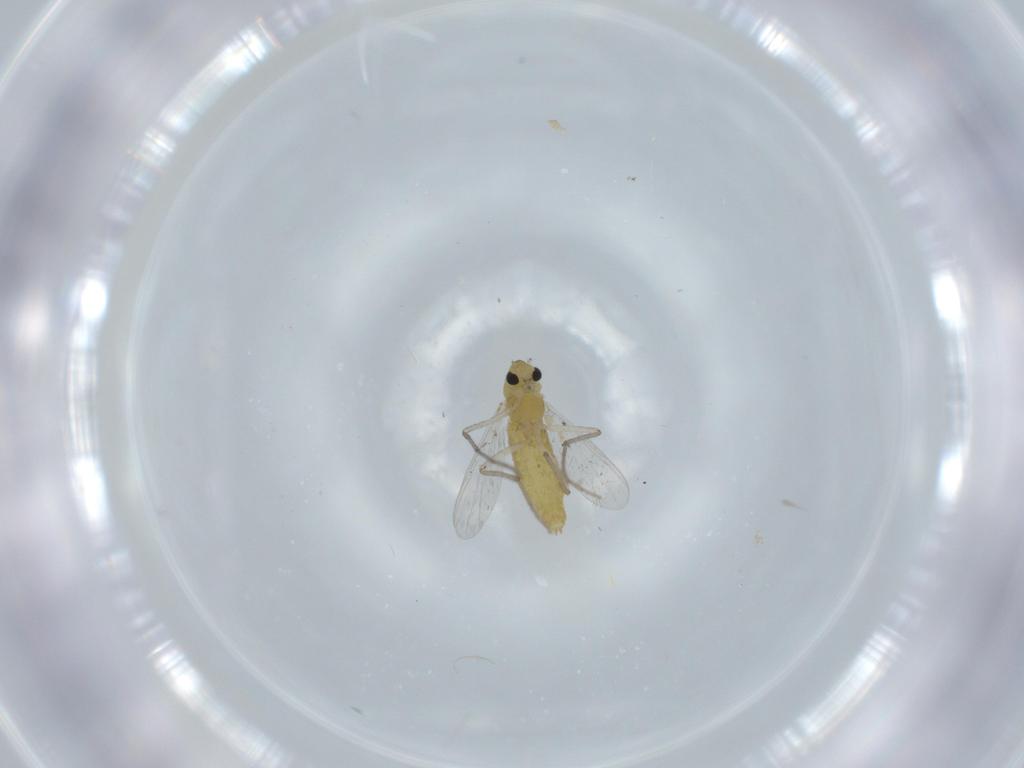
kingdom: Animalia
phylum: Arthropoda
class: Insecta
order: Diptera
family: Chironomidae
